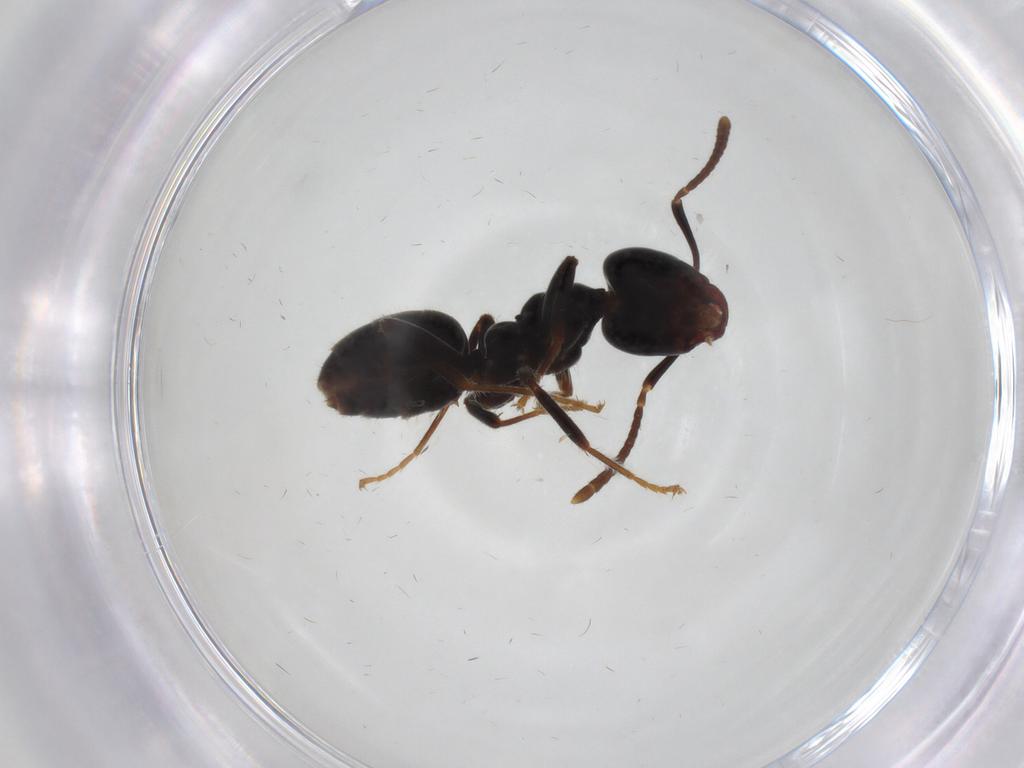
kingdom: Animalia
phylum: Arthropoda
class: Insecta
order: Hymenoptera
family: Formicidae
